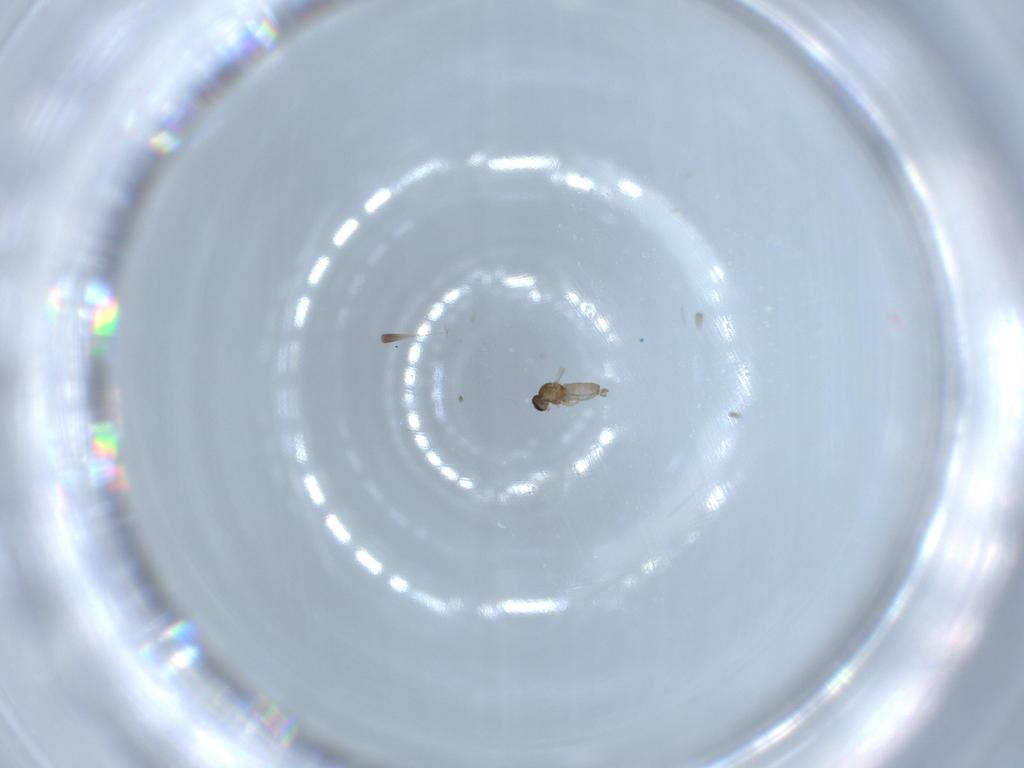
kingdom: Animalia
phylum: Arthropoda
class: Insecta
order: Diptera
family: Cecidomyiidae
